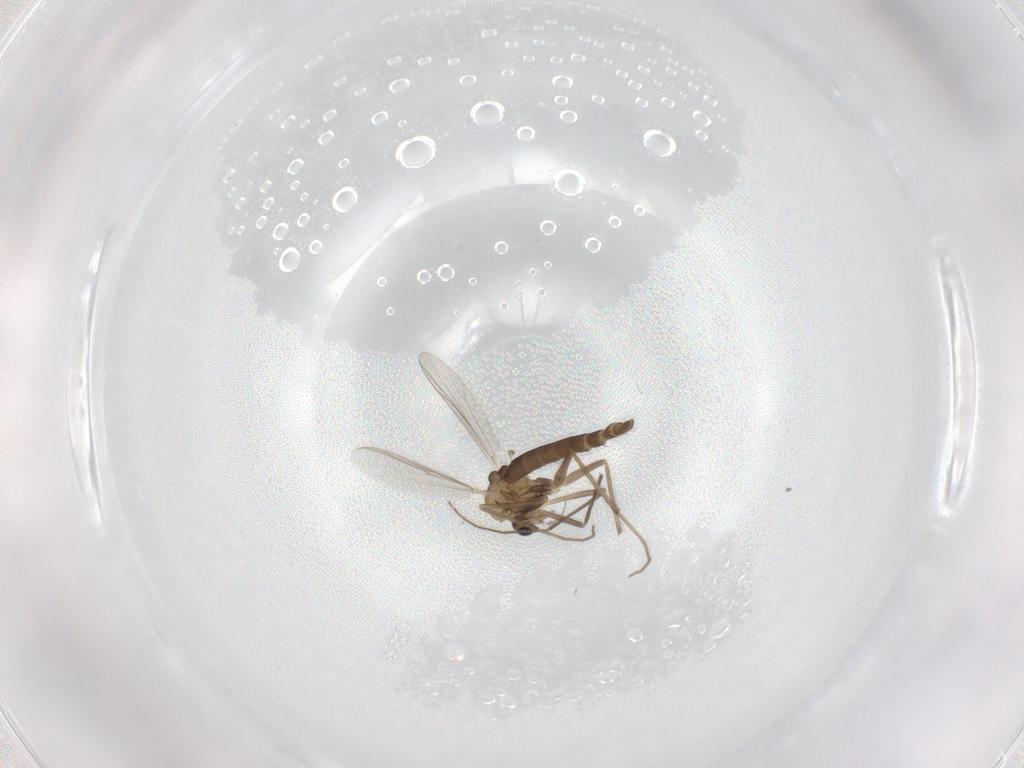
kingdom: Animalia
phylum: Arthropoda
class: Insecta
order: Diptera
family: Chironomidae
